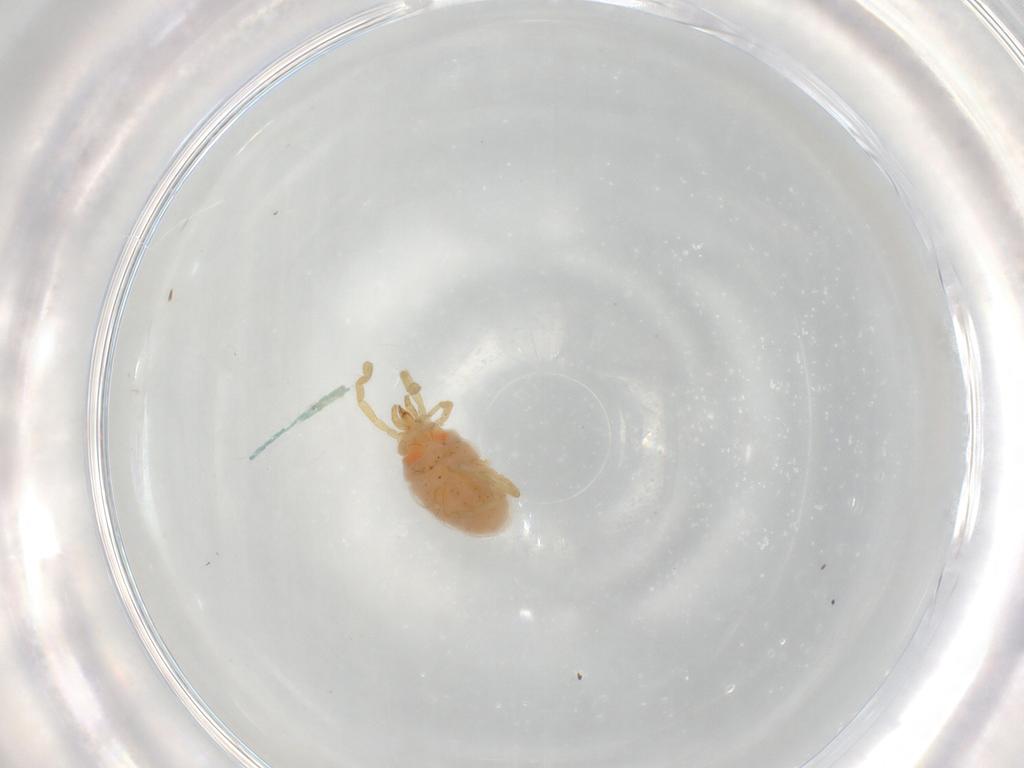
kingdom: Animalia
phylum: Arthropoda
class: Arachnida
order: Trombidiformes
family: Erythraeidae
